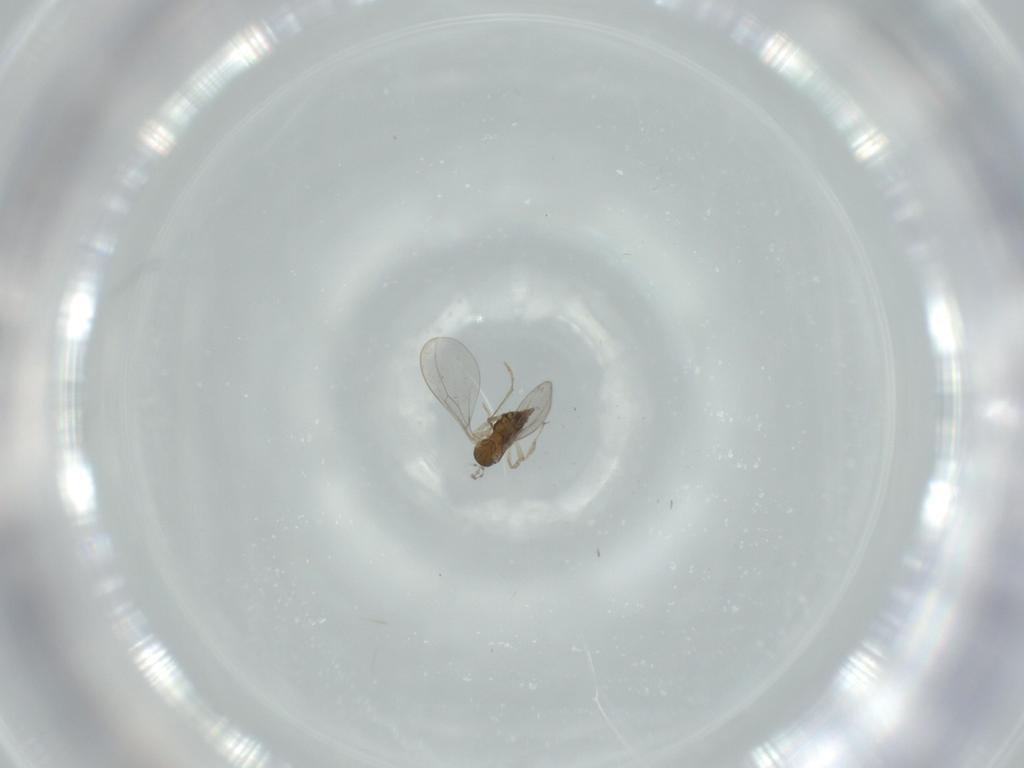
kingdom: Animalia
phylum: Arthropoda
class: Insecta
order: Diptera
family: Cecidomyiidae
